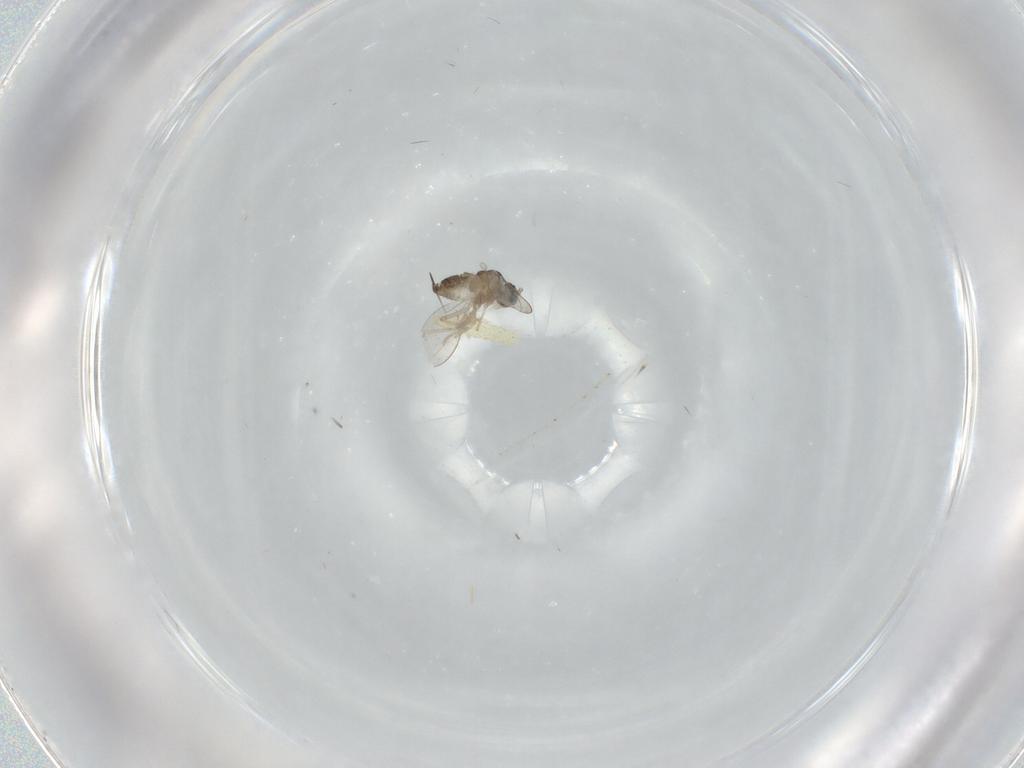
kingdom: Animalia
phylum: Arthropoda
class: Insecta
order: Diptera
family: Cecidomyiidae
